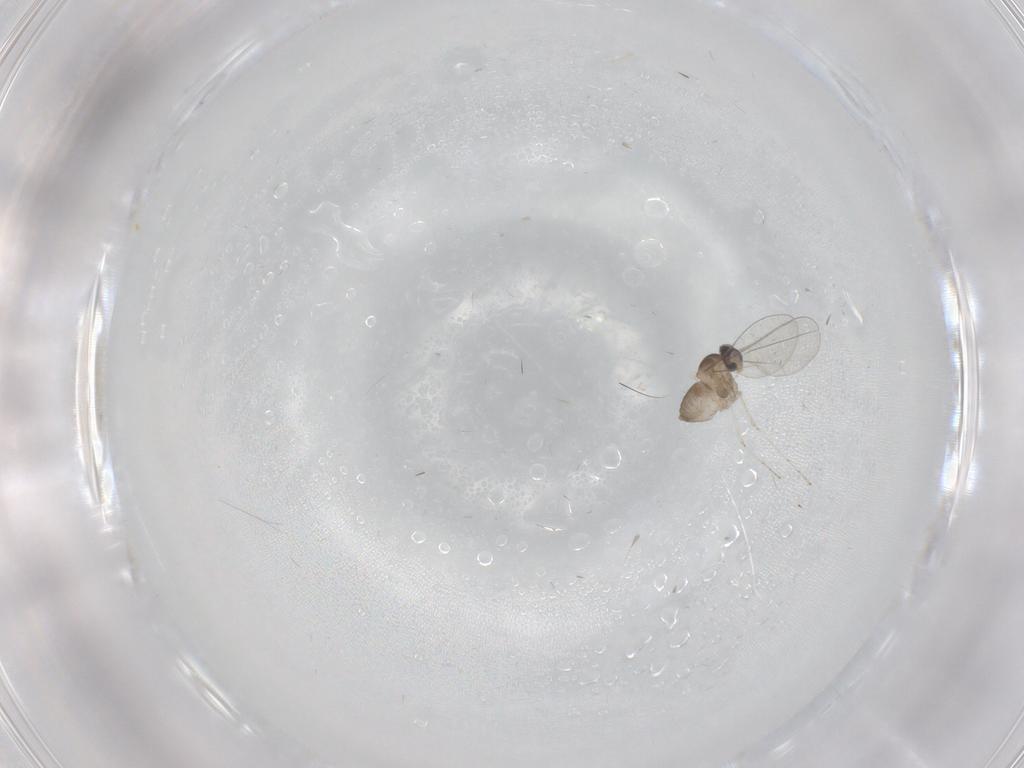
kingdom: Animalia
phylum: Arthropoda
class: Insecta
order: Diptera
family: Cecidomyiidae
